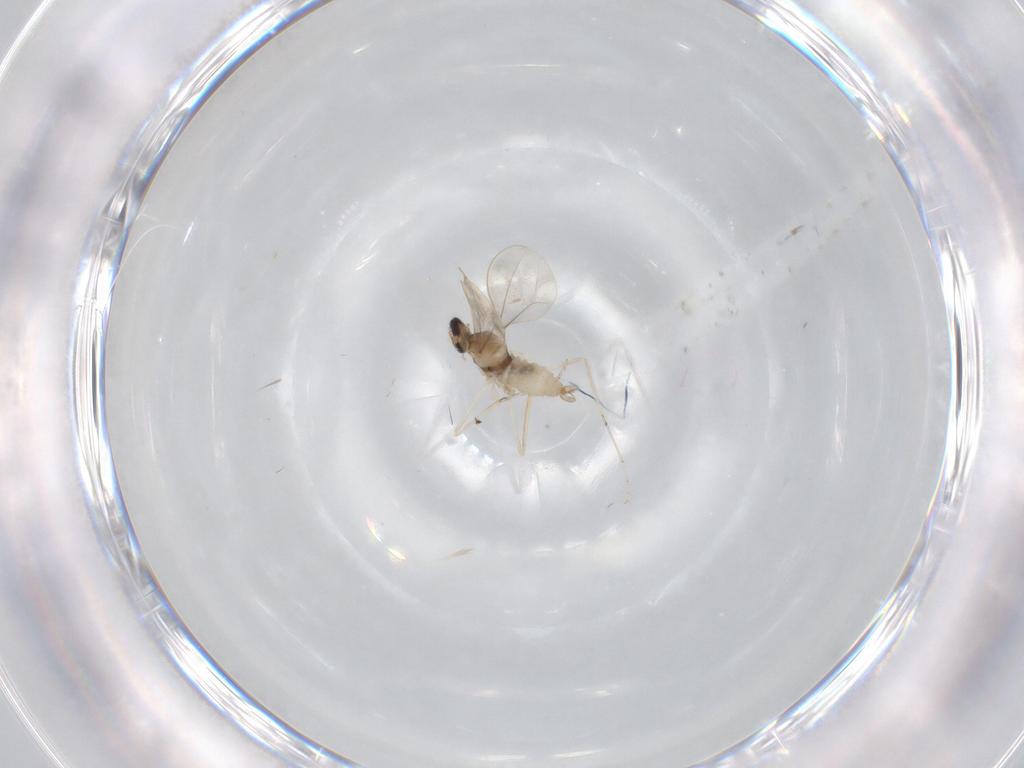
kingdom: Animalia
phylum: Arthropoda
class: Insecta
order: Diptera
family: Cecidomyiidae
